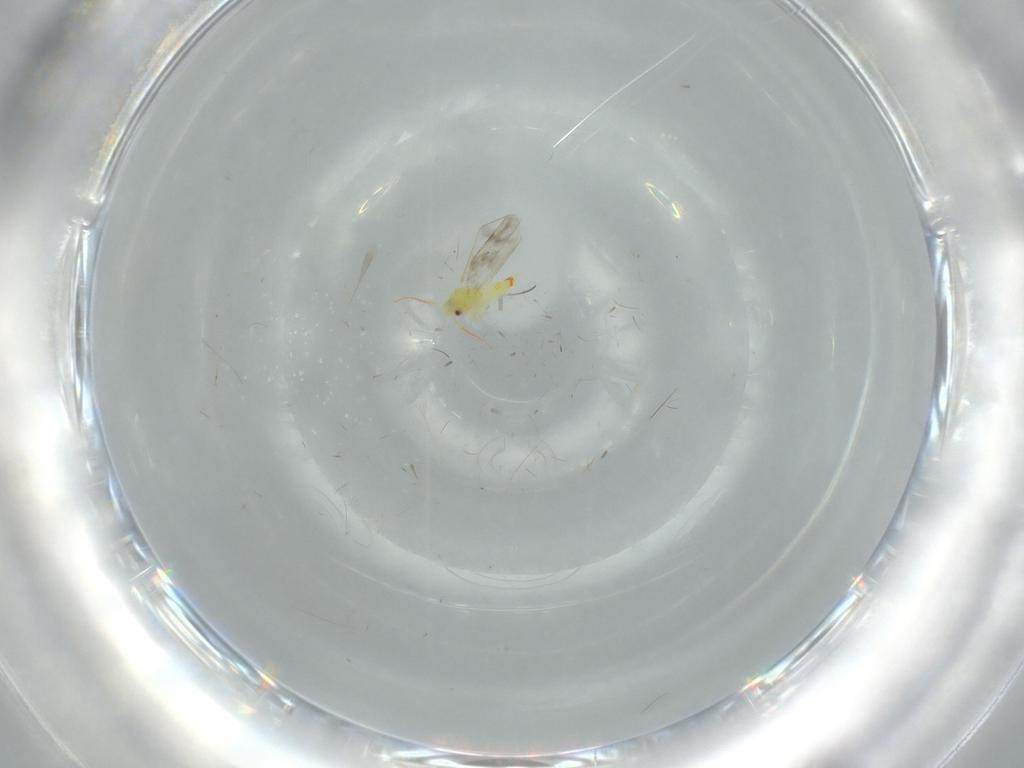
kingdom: Animalia
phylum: Arthropoda
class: Insecta
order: Hemiptera
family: Aleyrodidae
